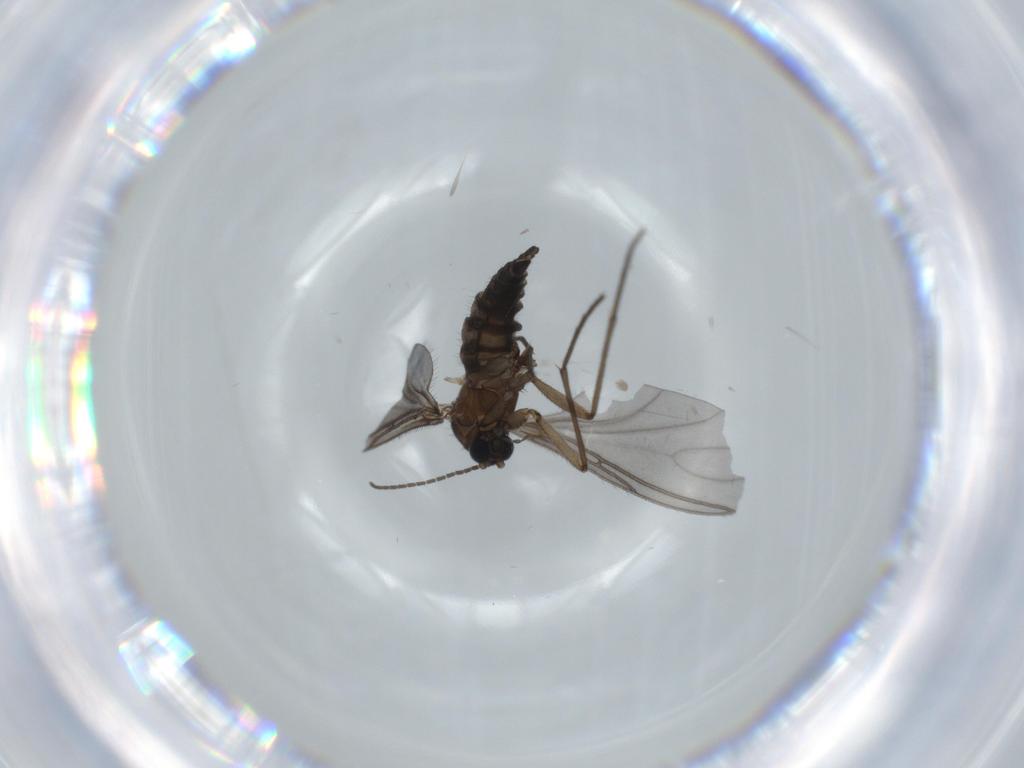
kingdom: Animalia
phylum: Arthropoda
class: Insecta
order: Diptera
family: Sciaridae
